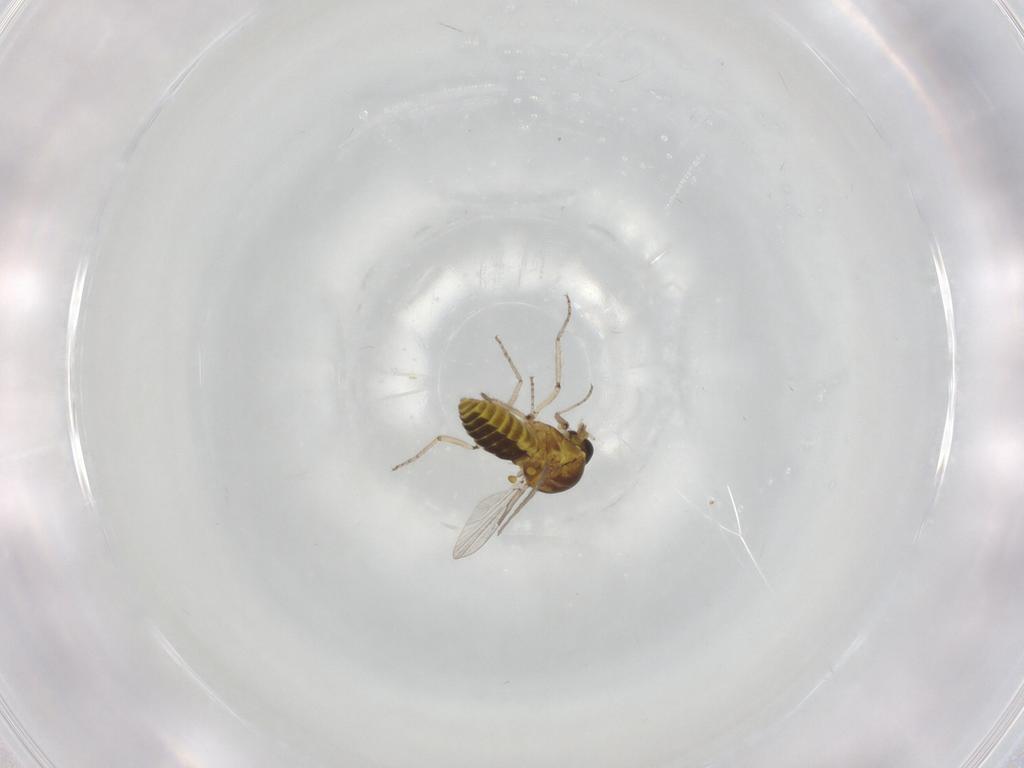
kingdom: Animalia
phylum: Arthropoda
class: Insecta
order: Diptera
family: Ceratopogonidae
